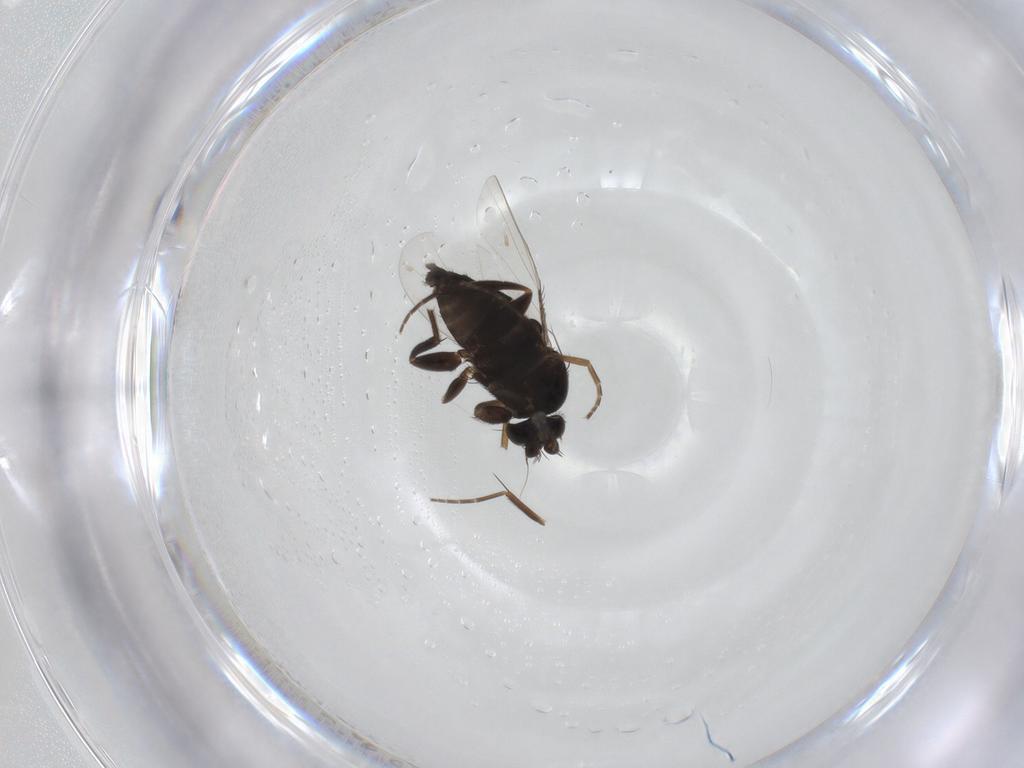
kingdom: Animalia
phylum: Arthropoda
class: Insecta
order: Diptera
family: Phoridae
